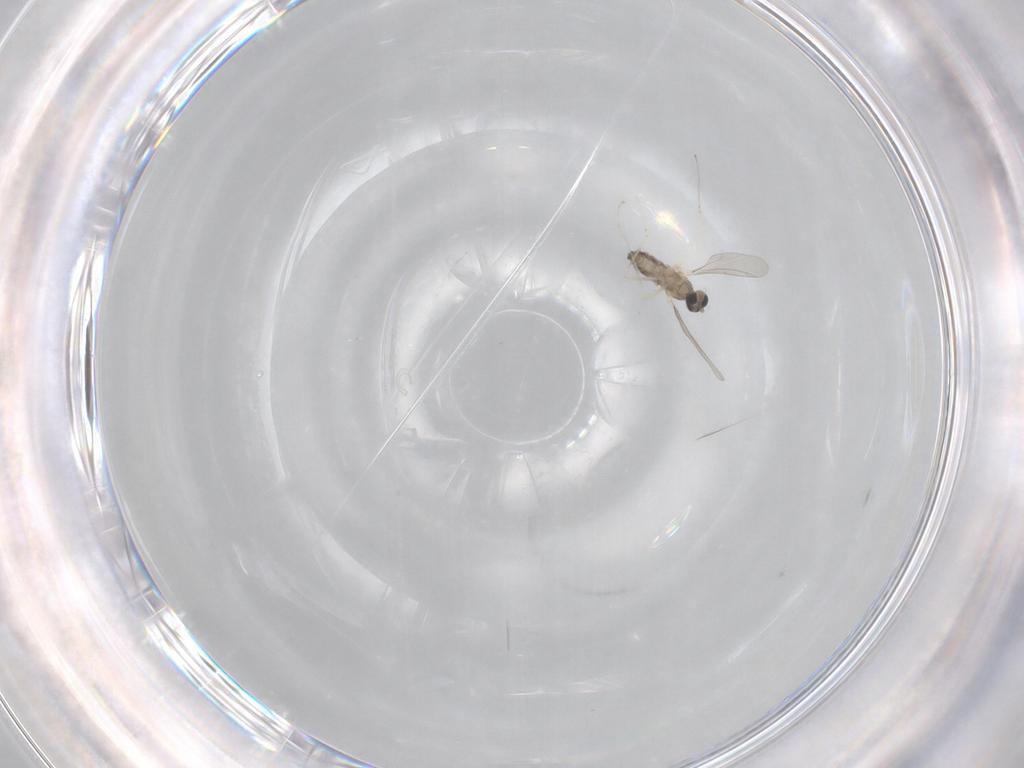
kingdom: Animalia
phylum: Arthropoda
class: Insecta
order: Diptera
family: Cecidomyiidae
